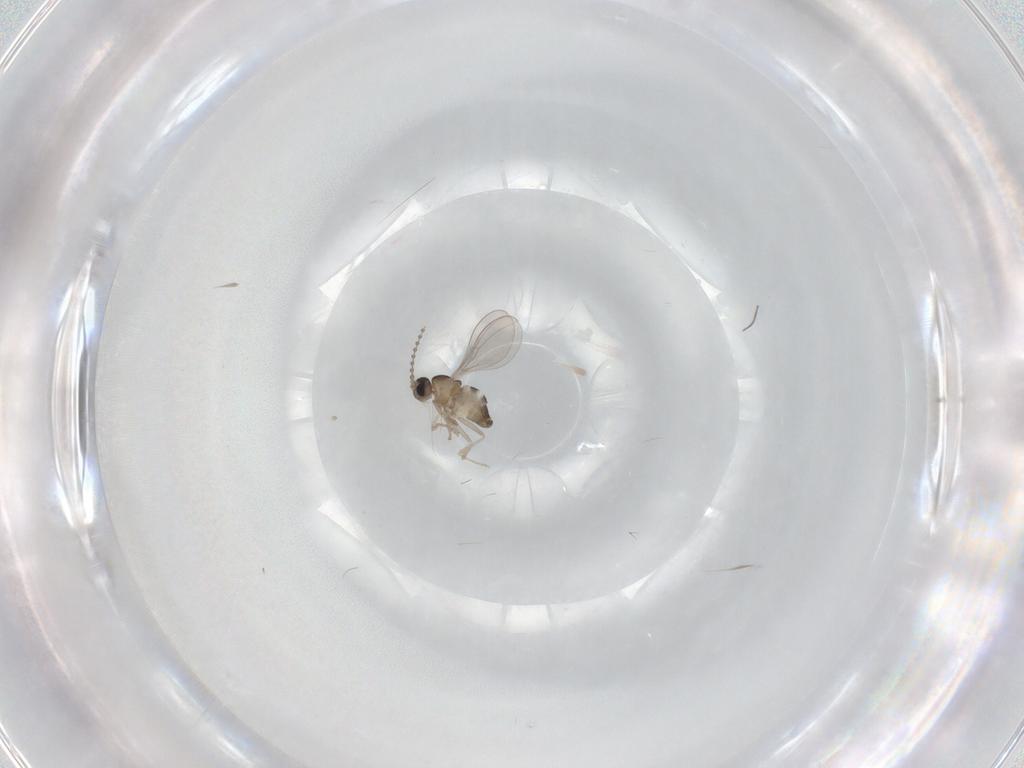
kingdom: Animalia
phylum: Arthropoda
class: Insecta
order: Diptera
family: Cecidomyiidae
